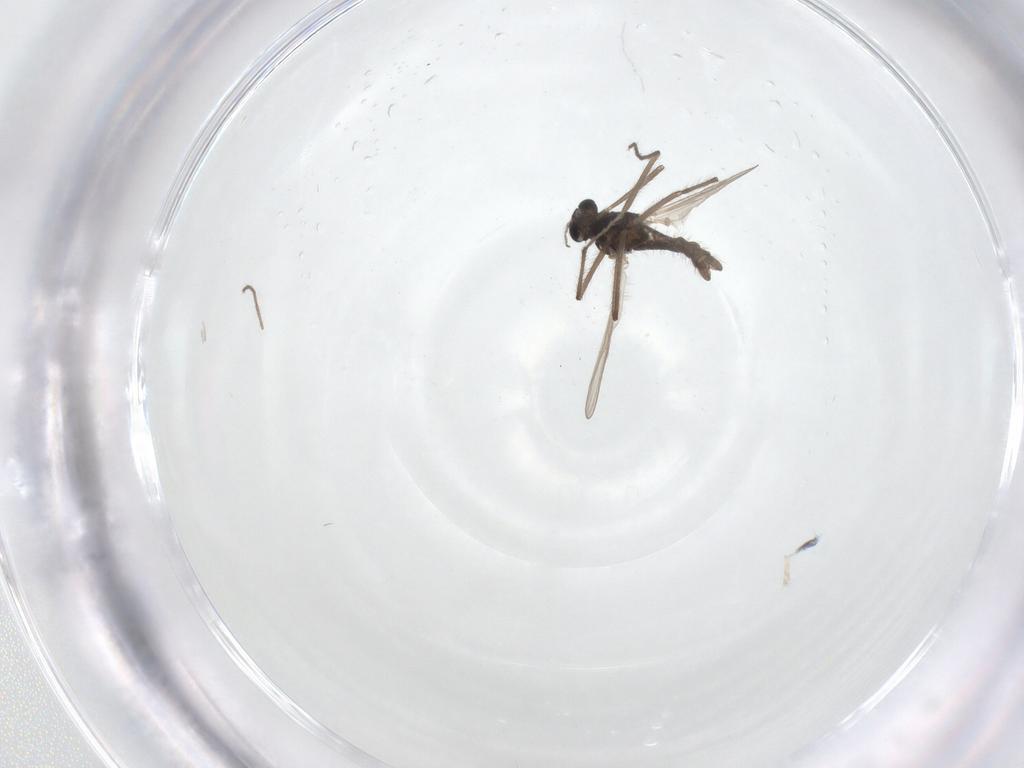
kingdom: Animalia
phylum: Arthropoda
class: Insecta
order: Diptera
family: Chironomidae
